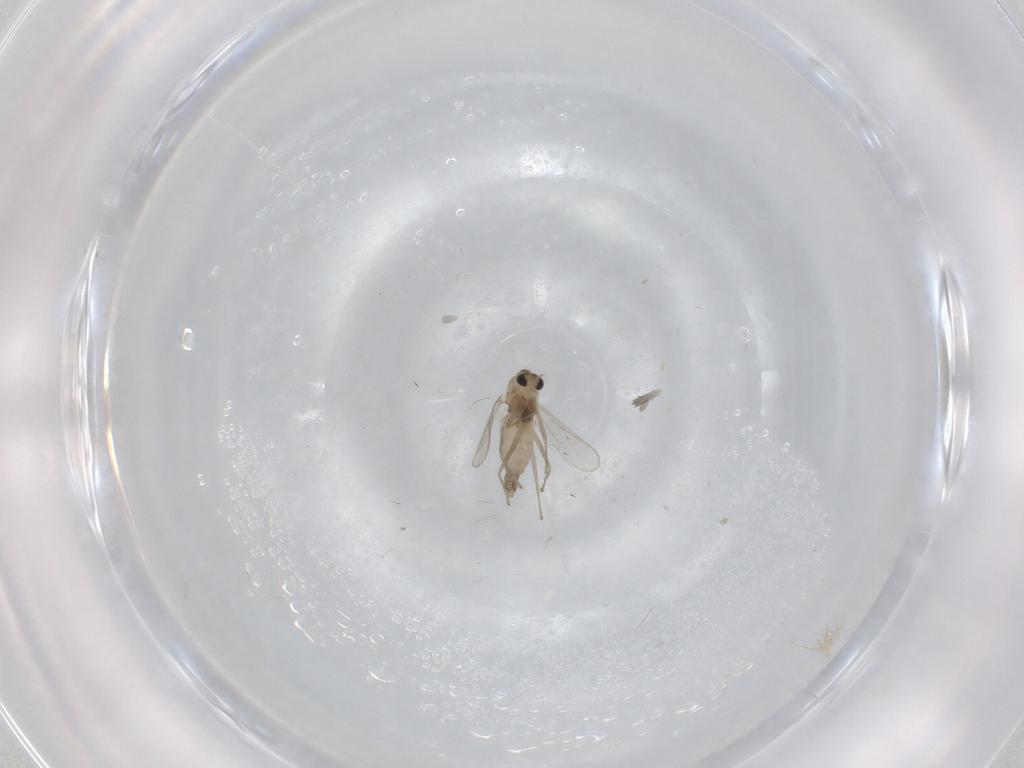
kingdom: Animalia
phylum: Arthropoda
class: Insecta
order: Diptera
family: Chironomidae
